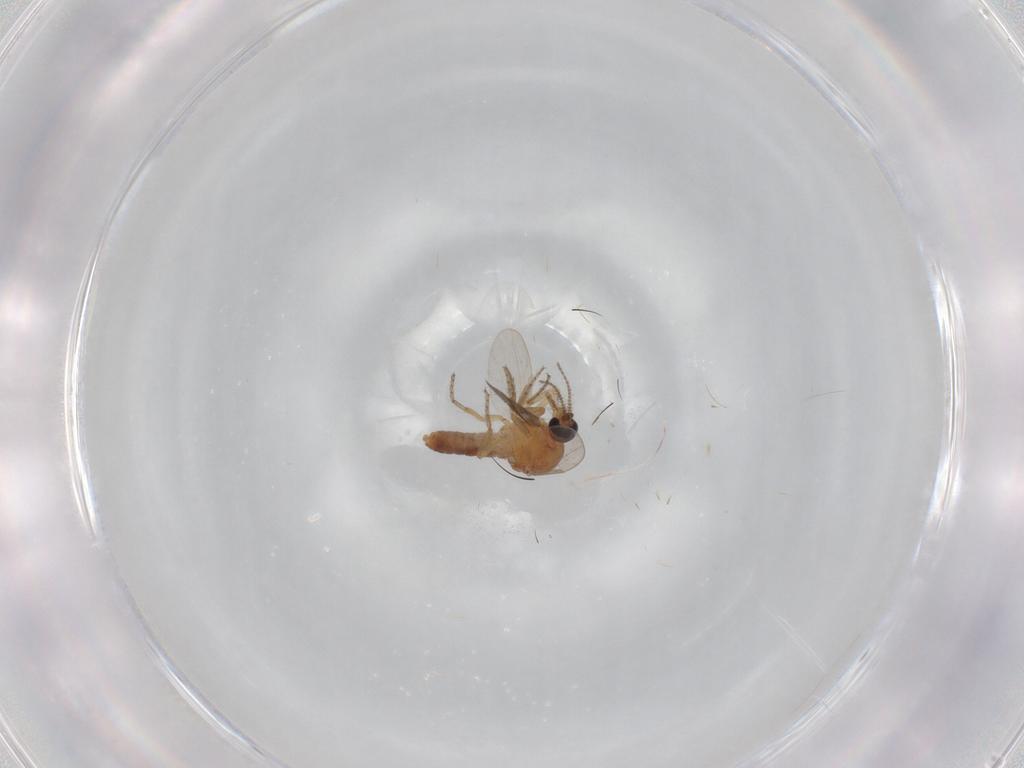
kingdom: Animalia
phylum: Arthropoda
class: Insecta
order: Diptera
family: Ceratopogonidae
